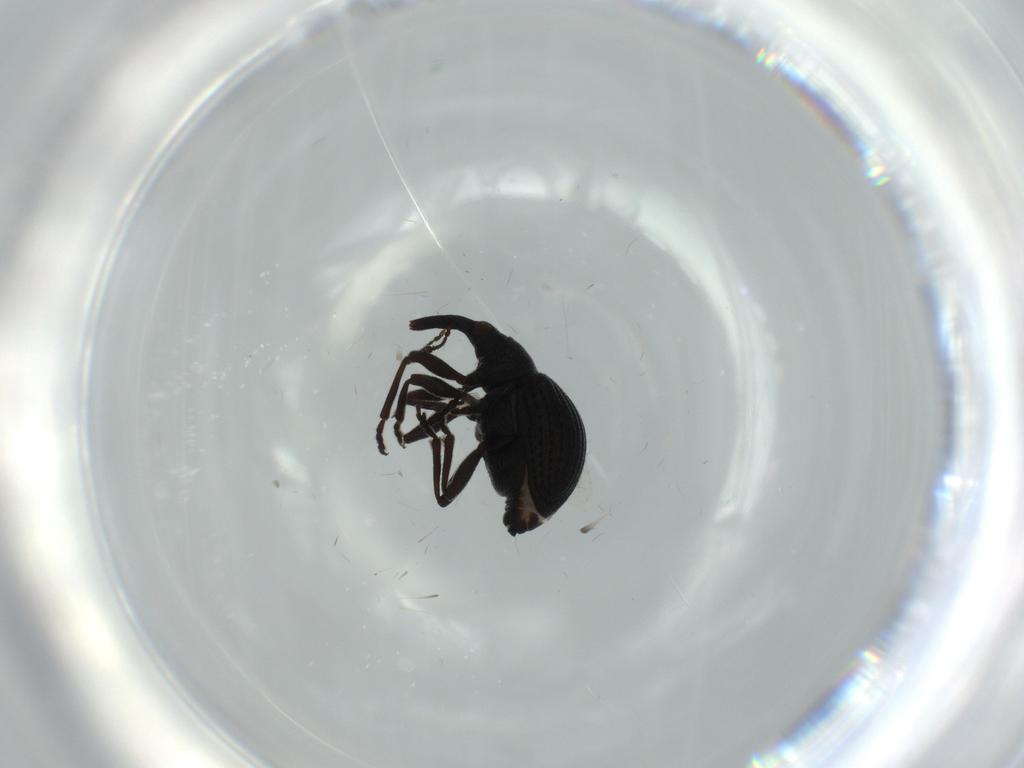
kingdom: Animalia
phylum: Arthropoda
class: Insecta
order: Coleoptera
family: Brentidae
